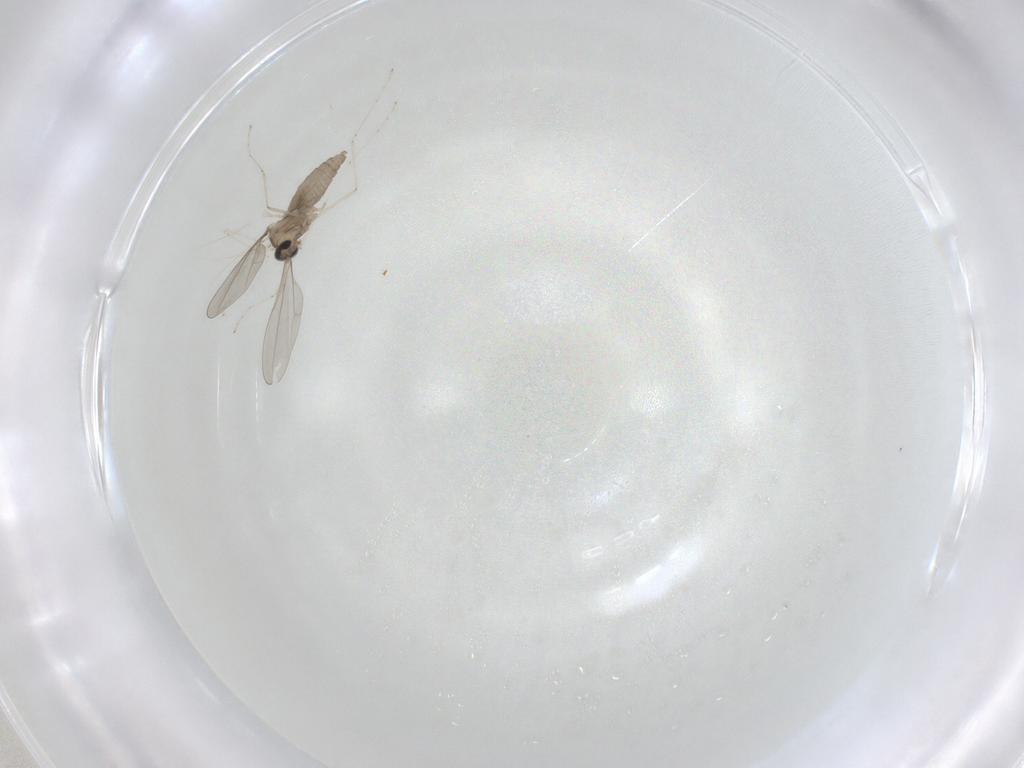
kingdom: Animalia
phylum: Arthropoda
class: Insecta
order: Diptera
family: Cecidomyiidae
